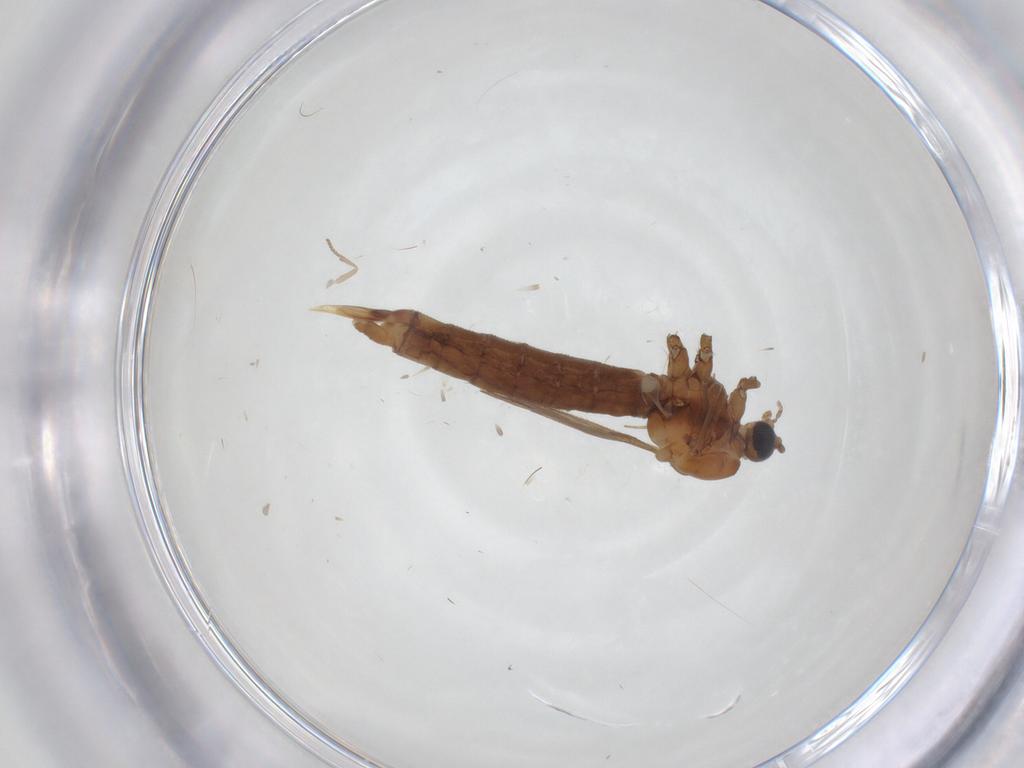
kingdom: Animalia
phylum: Arthropoda
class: Insecta
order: Diptera
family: Limoniidae
